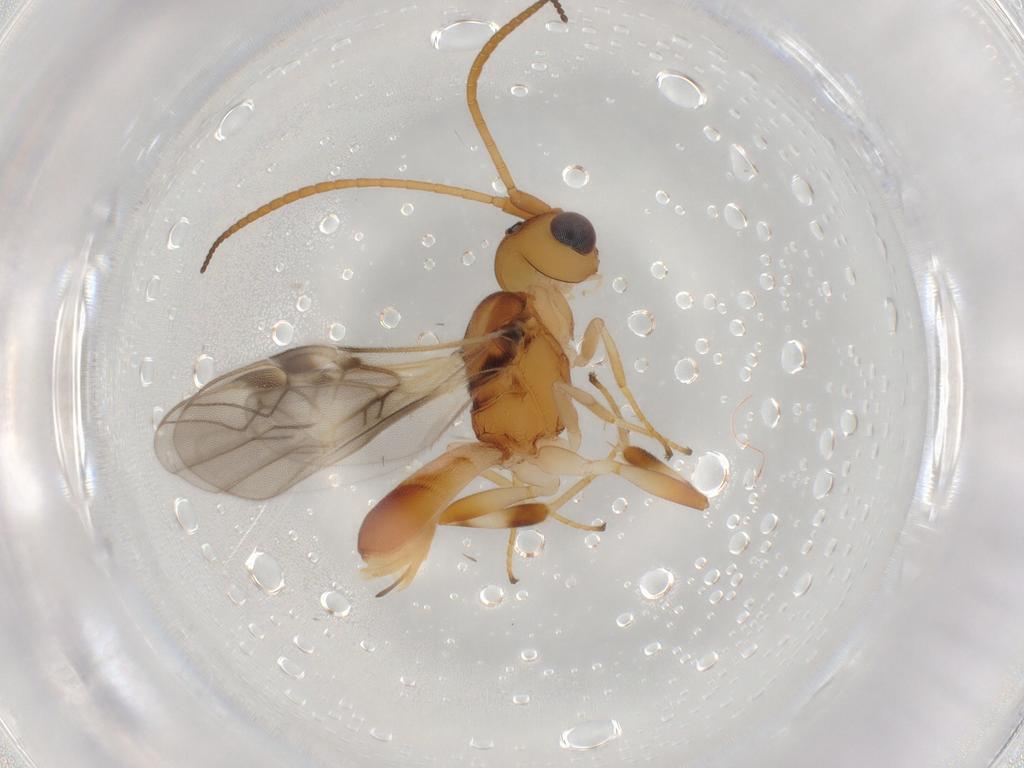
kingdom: Animalia
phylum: Arthropoda
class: Insecta
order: Hymenoptera
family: Braconidae
